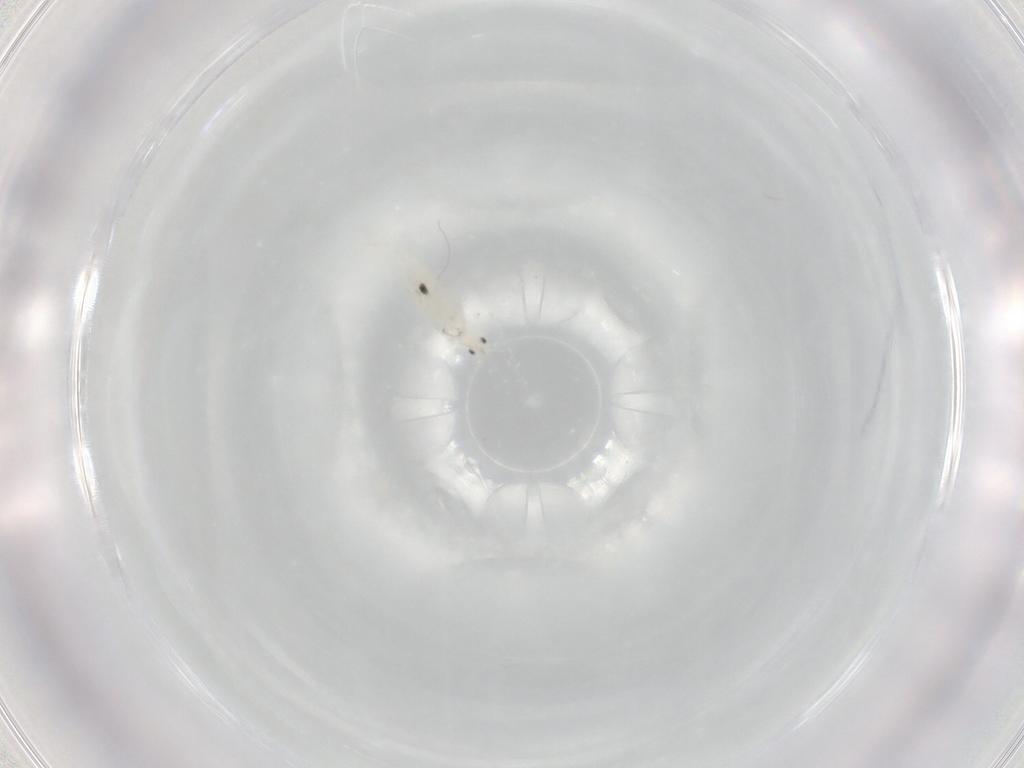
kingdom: Animalia
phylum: Arthropoda
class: Collembola
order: Entomobryomorpha
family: Entomobryidae
